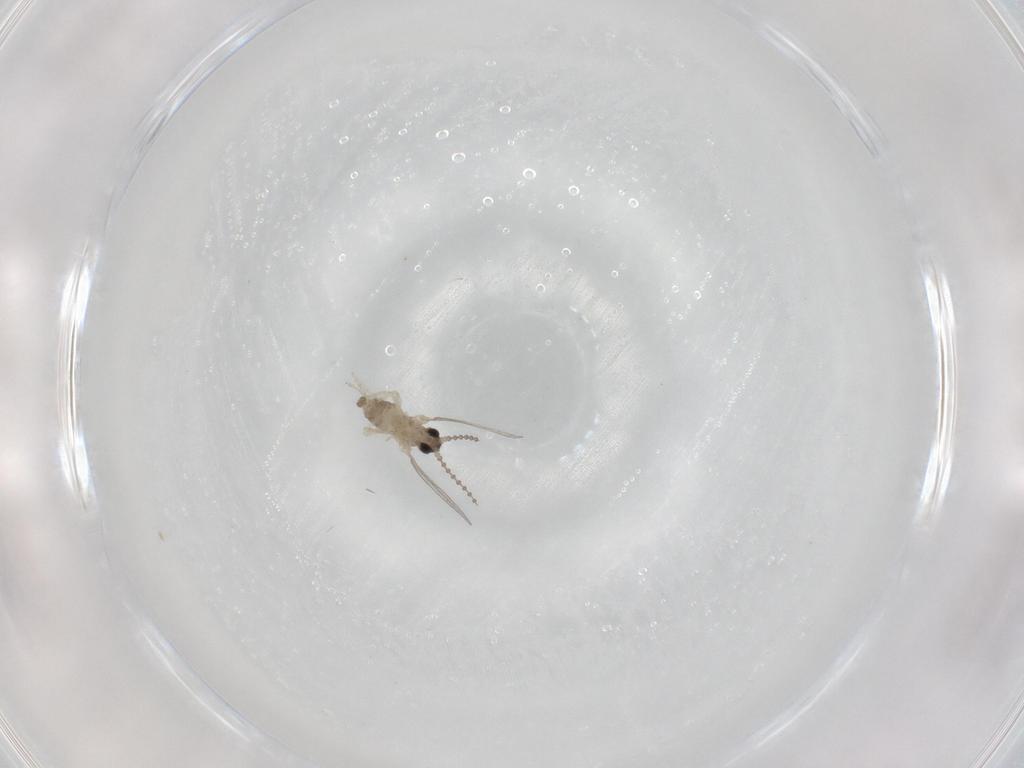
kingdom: Animalia
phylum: Arthropoda
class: Insecta
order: Diptera
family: Cecidomyiidae
